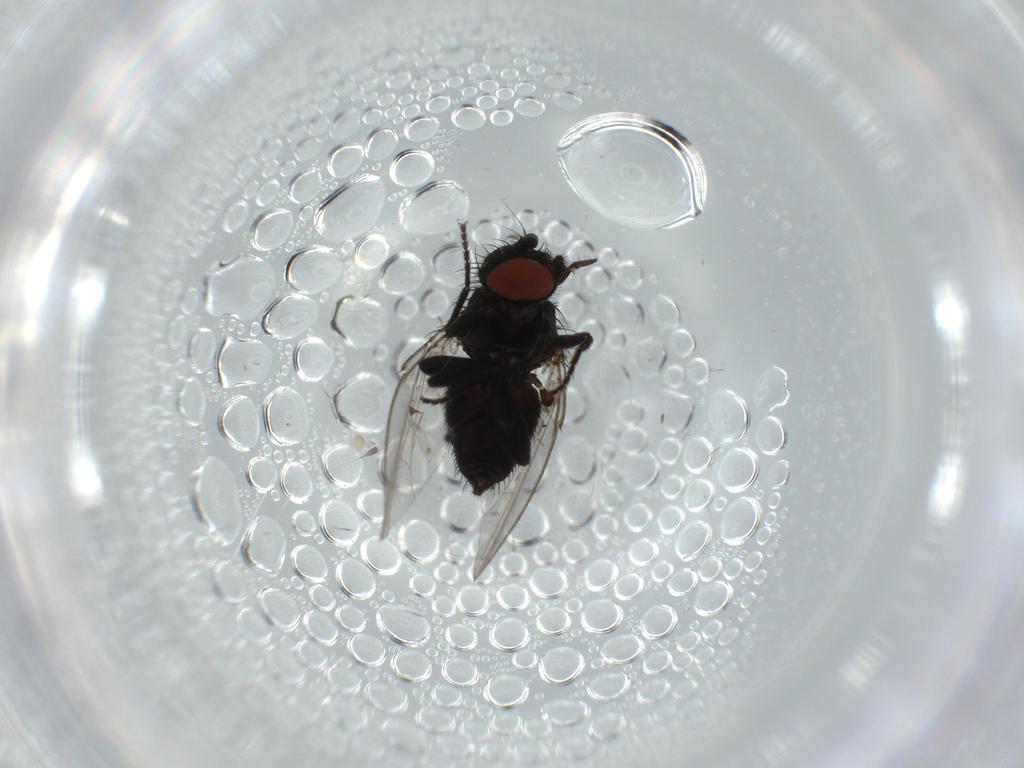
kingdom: Animalia
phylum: Arthropoda
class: Insecta
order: Diptera
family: Milichiidae
